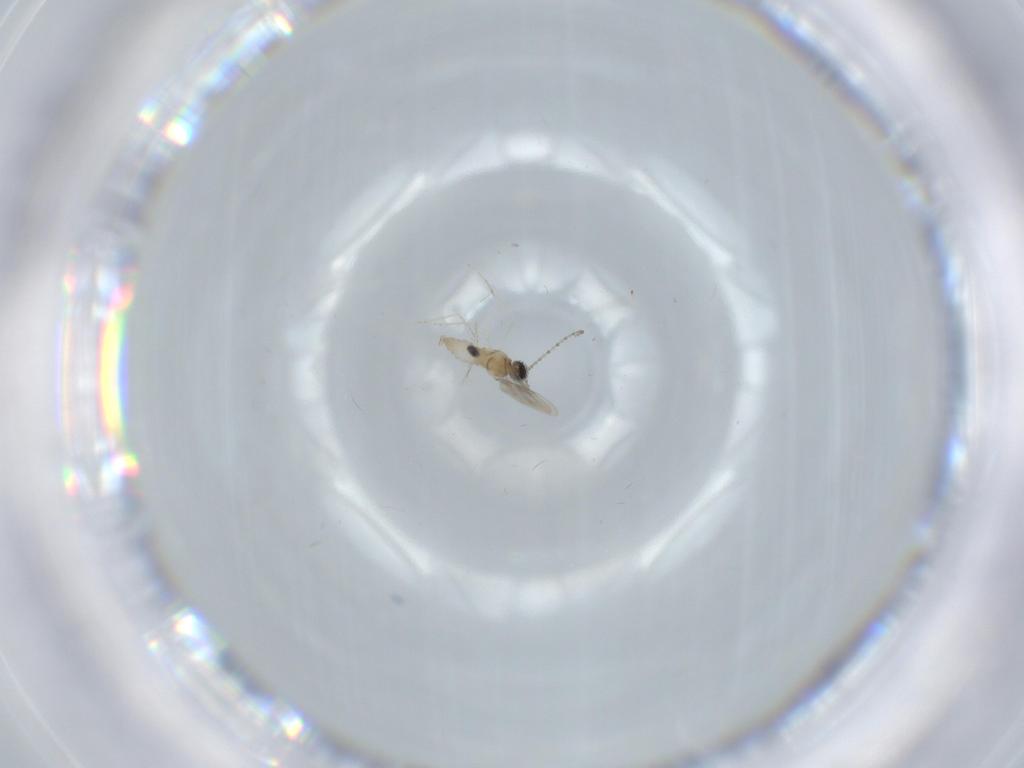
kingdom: Animalia
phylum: Arthropoda
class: Insecta
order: Diptera
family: Cecidomyiidae
